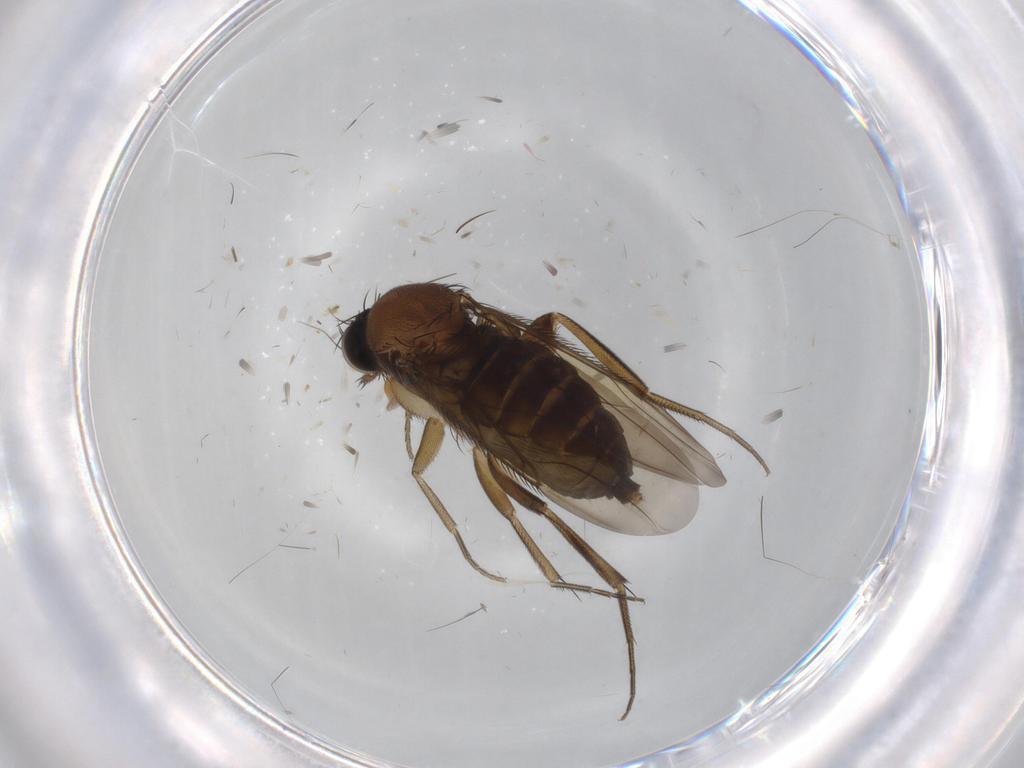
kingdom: Animalia
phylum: Arthropoda
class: Insecta
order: Diptera
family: Phoridae
